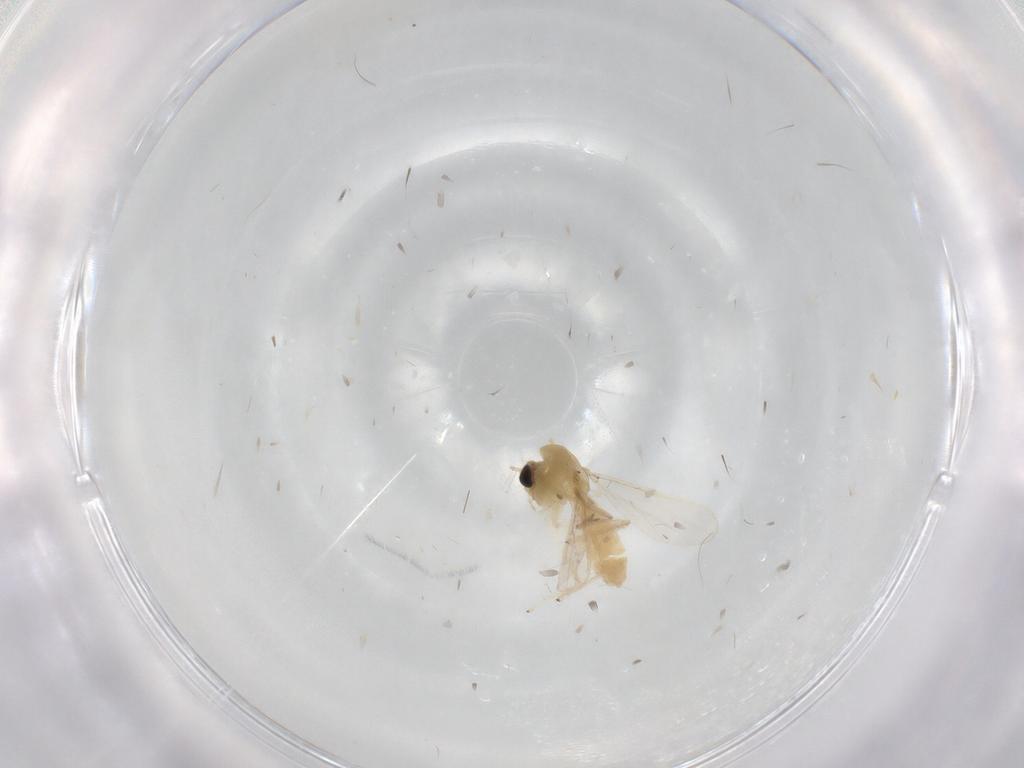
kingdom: Animalia
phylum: Arthropoda
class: Insecta
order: Diptera
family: Chironomidae
